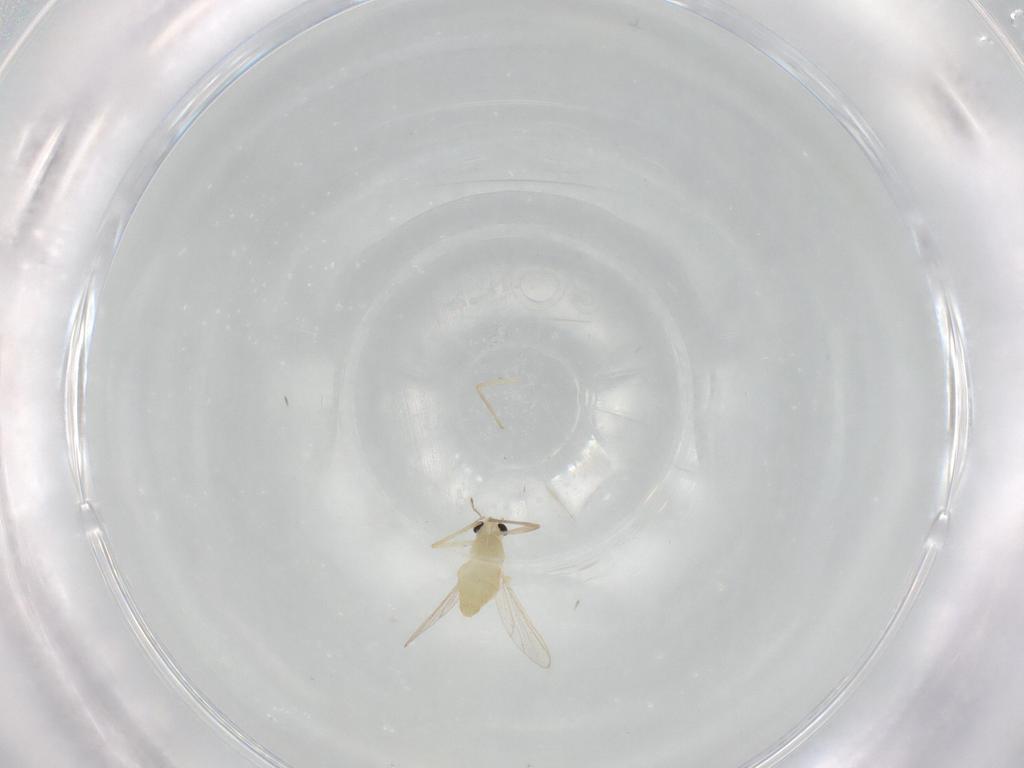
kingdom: Animalia
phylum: Arthropoda
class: Insecta
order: Diptera
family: Chironomidae
